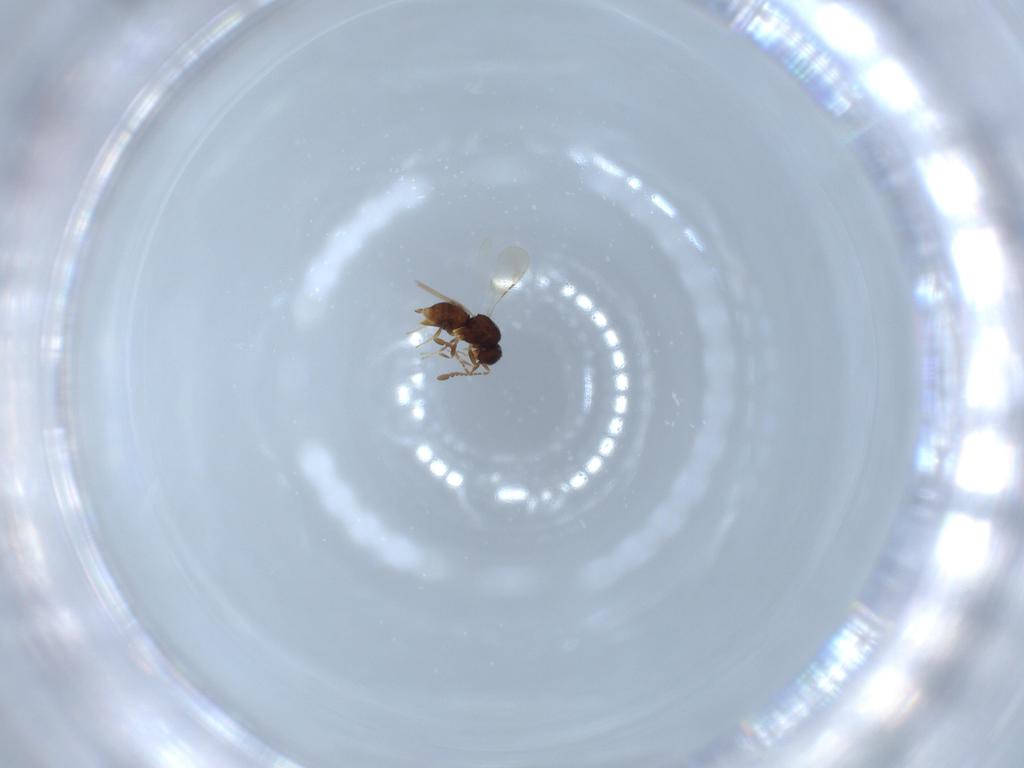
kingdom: Animalia
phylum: Arthropoda
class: Insecta
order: Hymenoptera
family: Ceraphronidae
